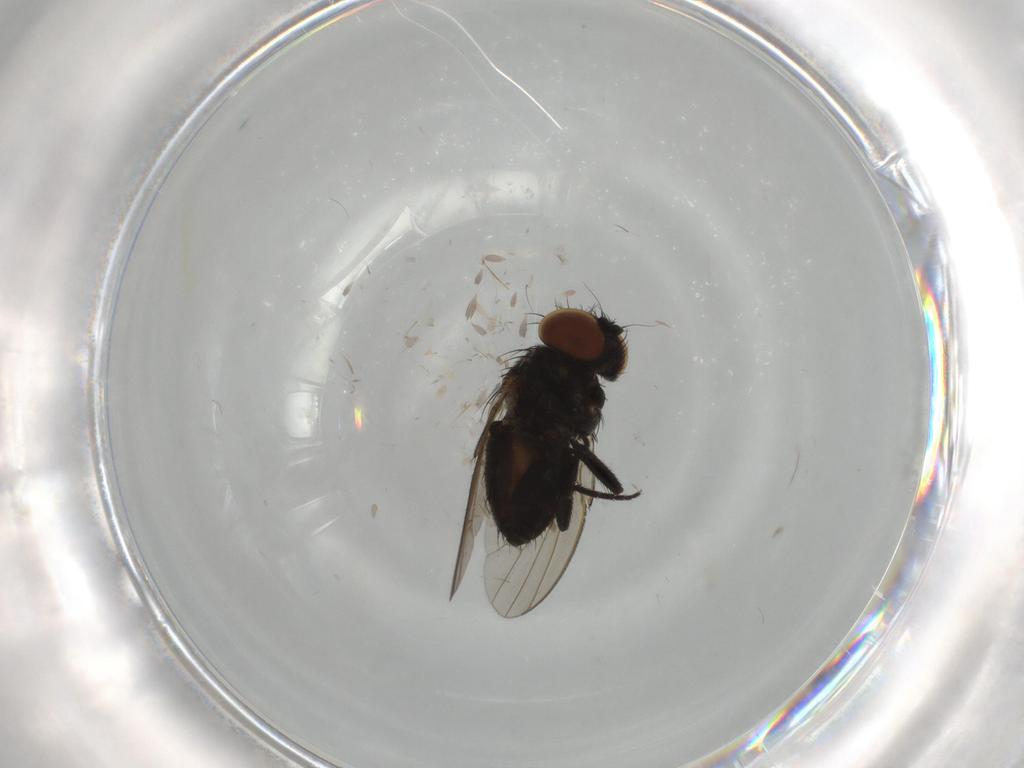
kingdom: Animalia
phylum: Arthropoda
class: Insecta
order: Diptera
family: Milichiidae
